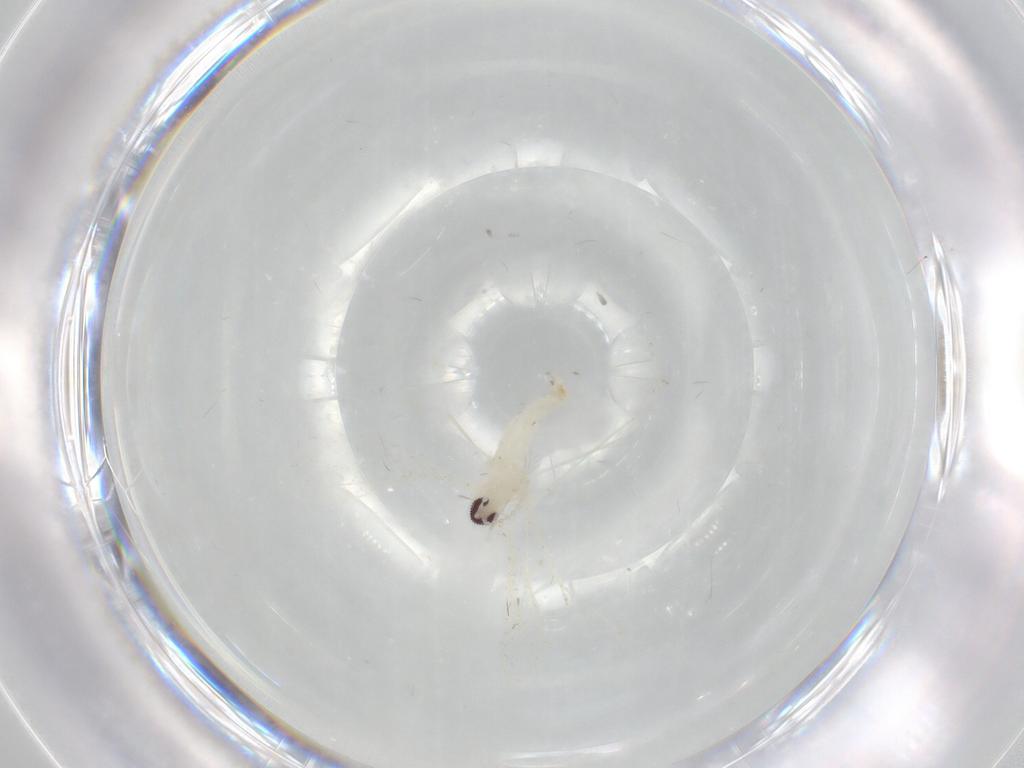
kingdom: Animalia
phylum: Arthropoda
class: Insecta
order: Diptera
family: Cecidomyiidae
